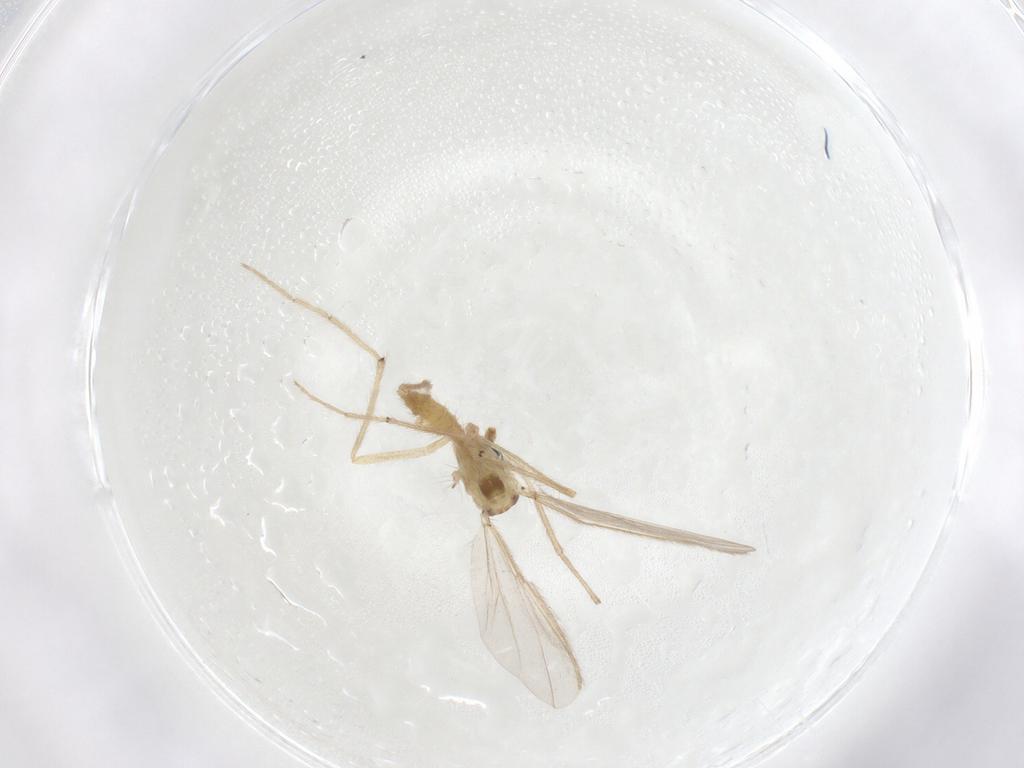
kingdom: Animalia
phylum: Arthropoda
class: Insecta
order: Diptera
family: Chironomidae
